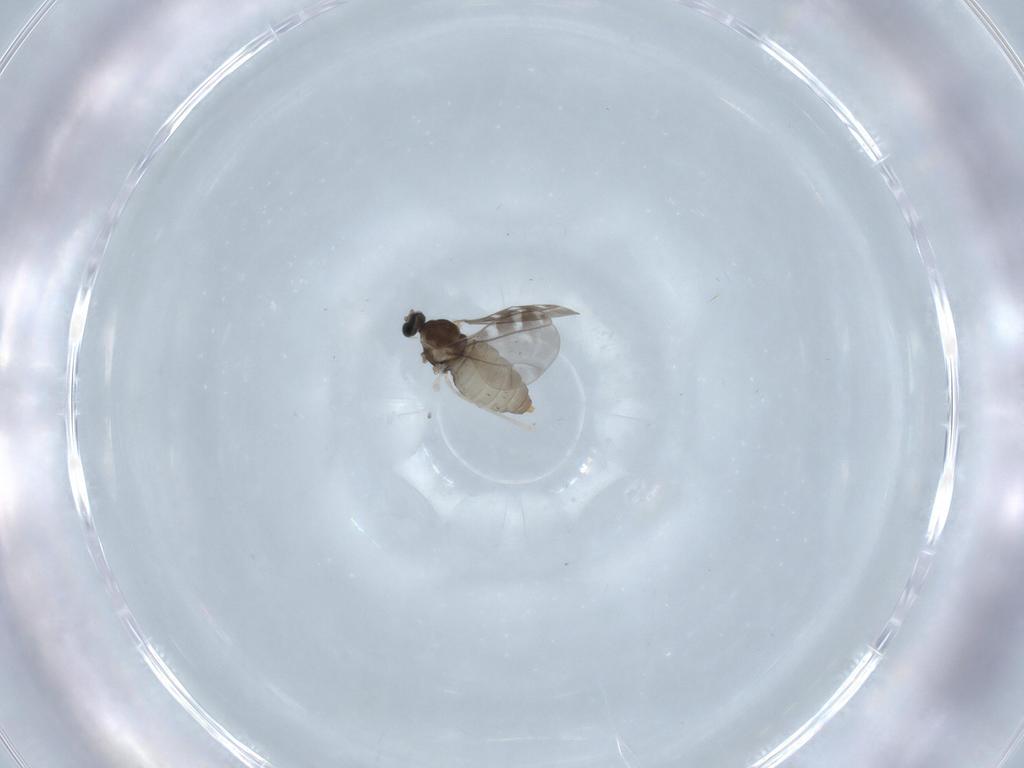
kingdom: Animalia
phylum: Arthropoda
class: Insecta
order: Diptera
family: Cecidomyiidae
